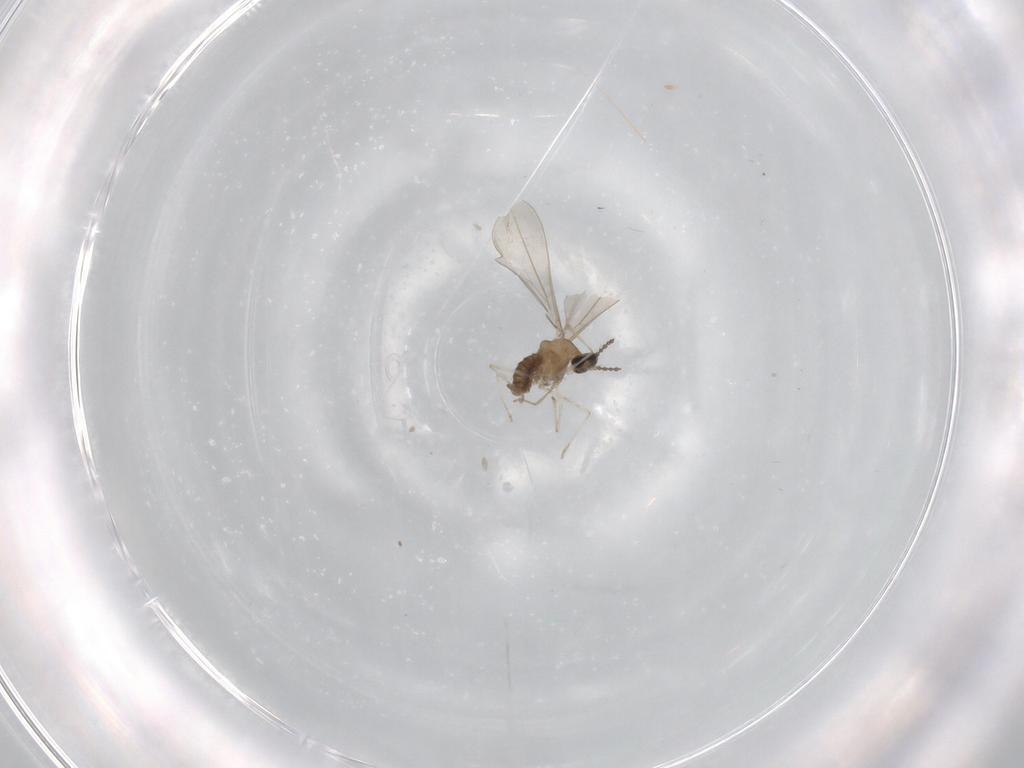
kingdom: Animalia
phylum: Arthropoda
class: Insecta
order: Diptera
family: Cecidomyiidae
